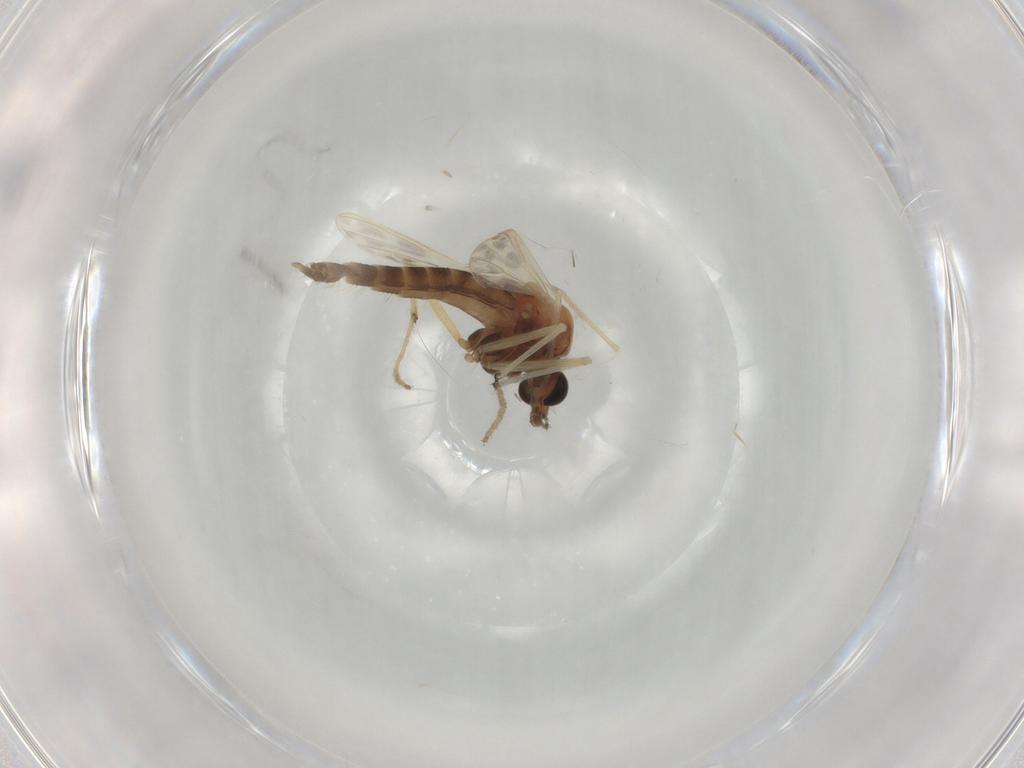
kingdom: Animalia
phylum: Arthropoda
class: Insecta
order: Diptera
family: Chironomidae
